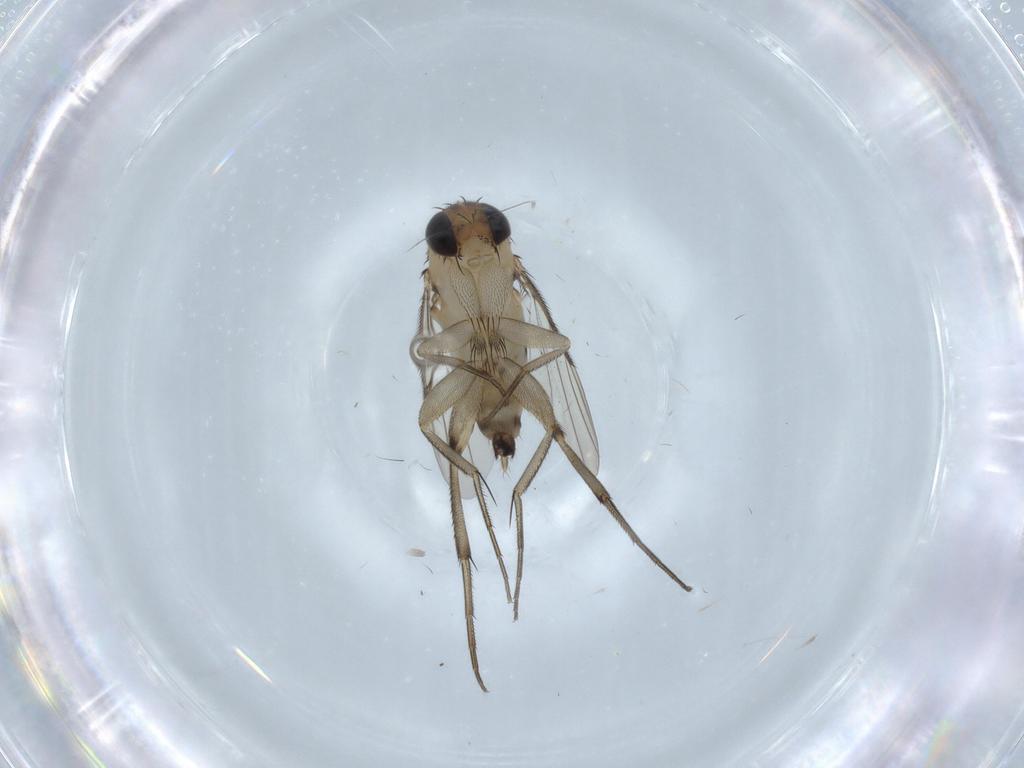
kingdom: Animalia
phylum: Arthropoda
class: Insecta
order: Diptera
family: Phoridae
